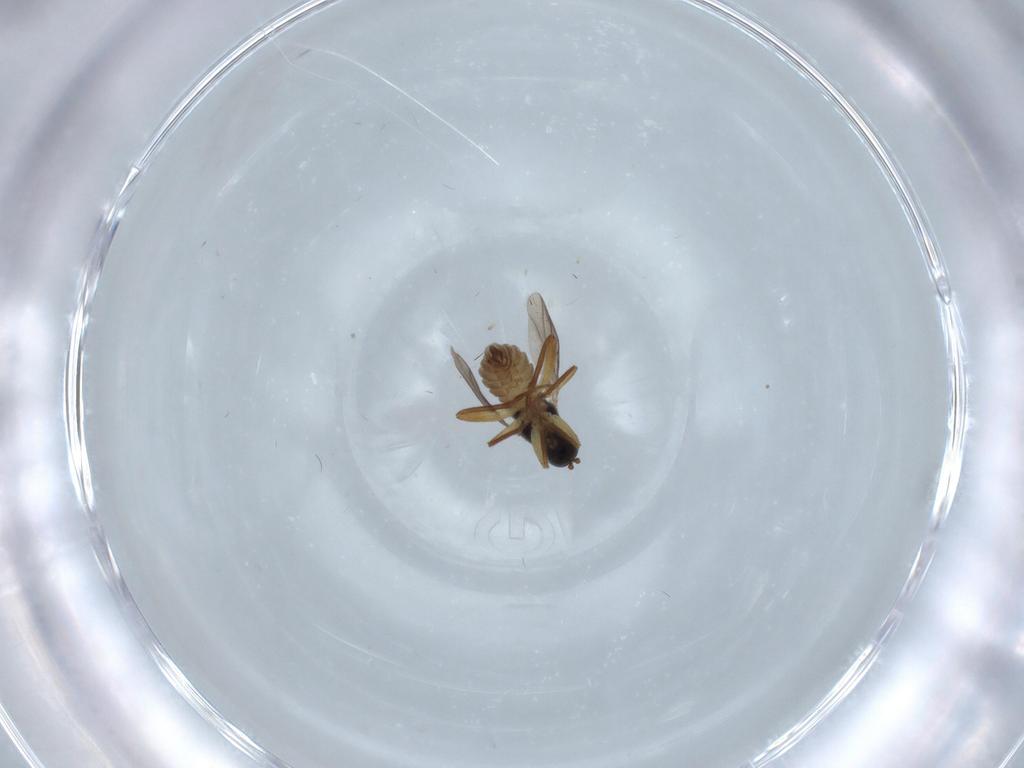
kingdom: Animalia
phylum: Arthropoda
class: Insecta
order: Diptera
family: Cecidomyiidae
